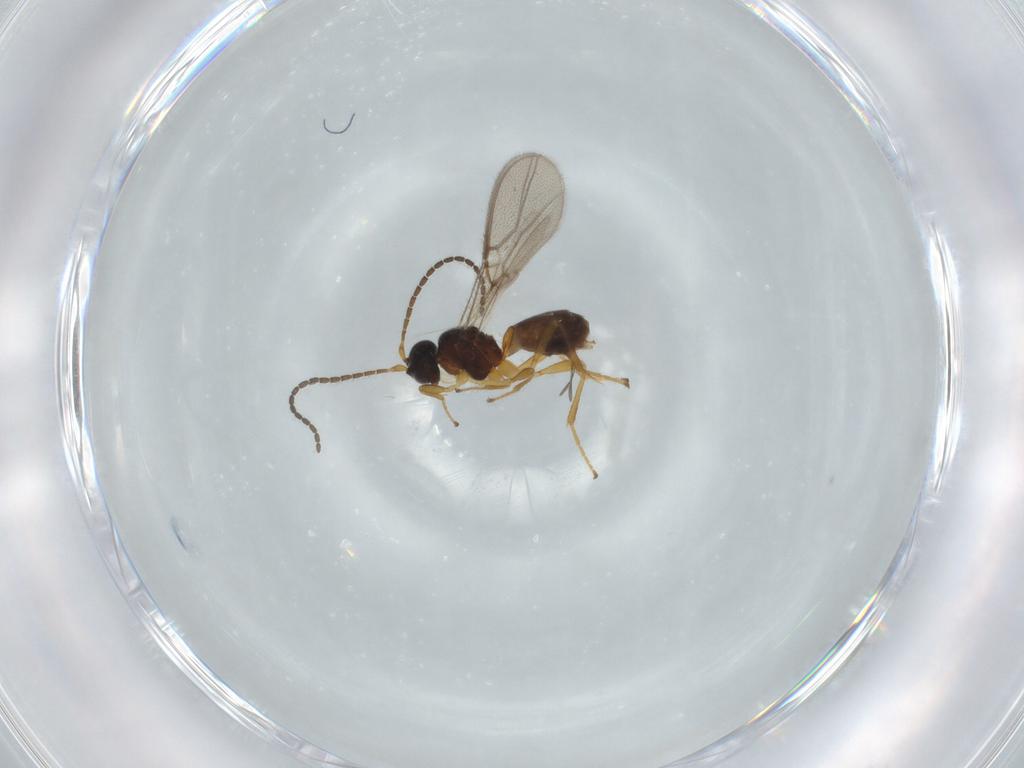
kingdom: Animalia
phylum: Arthropoda
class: Insecta
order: Hymenoptera
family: Braconidae
